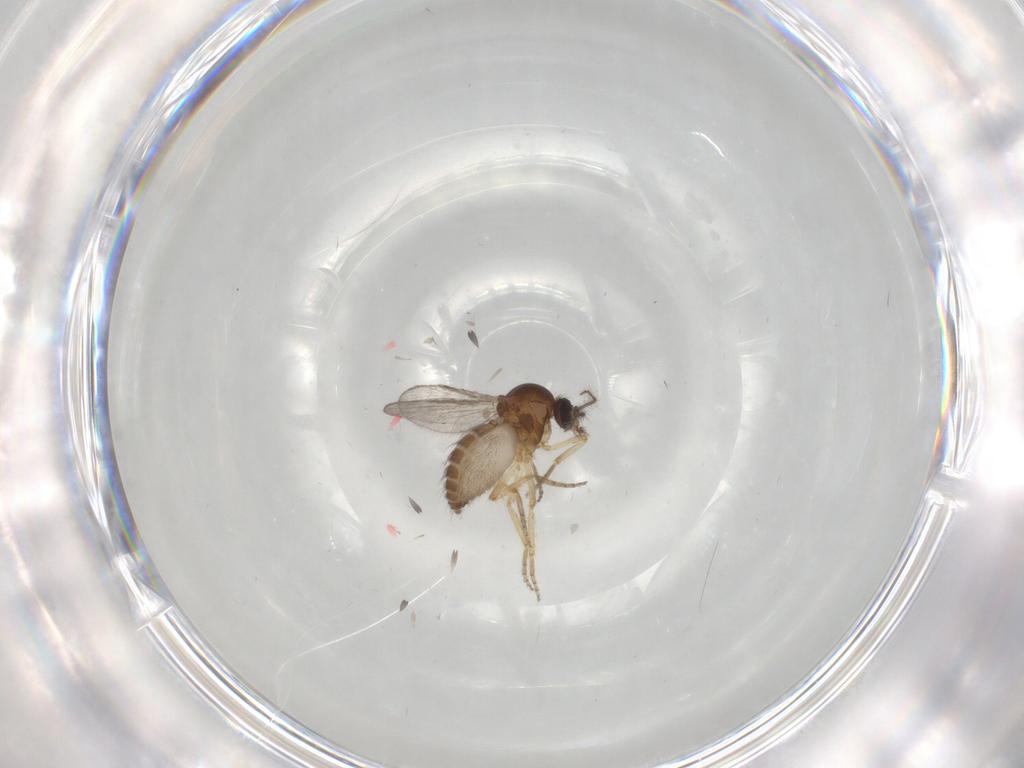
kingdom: Animalia
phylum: Arthropoda
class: Insecta
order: Diptera
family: Ceratopogonidae
